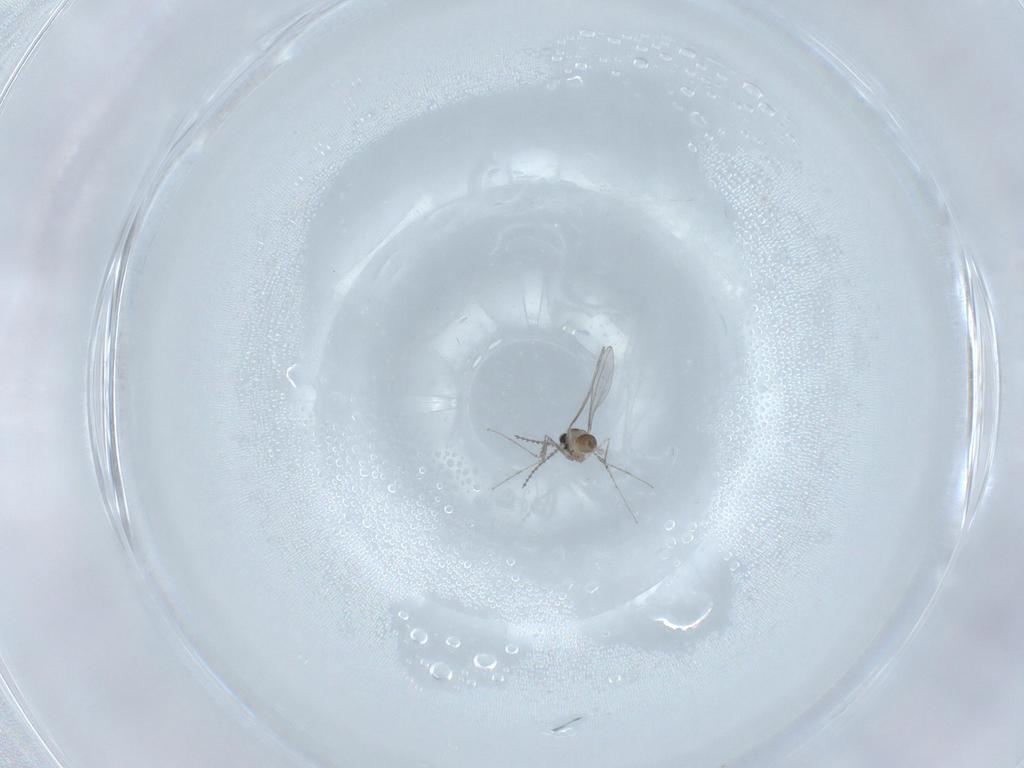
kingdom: Animalia
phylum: Arthropoda
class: Insecta
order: Diptera
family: Cecidomyiidae
